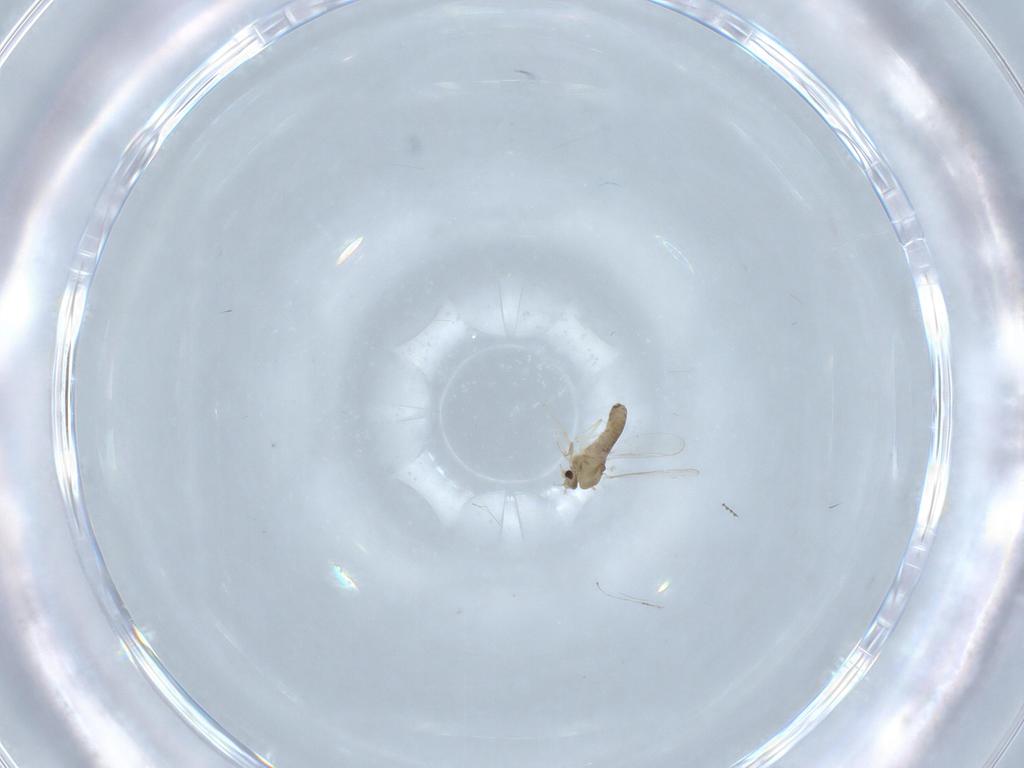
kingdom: Animalia
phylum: Arthropoda
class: Insecta
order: Diptera
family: Cecidomyiidae
